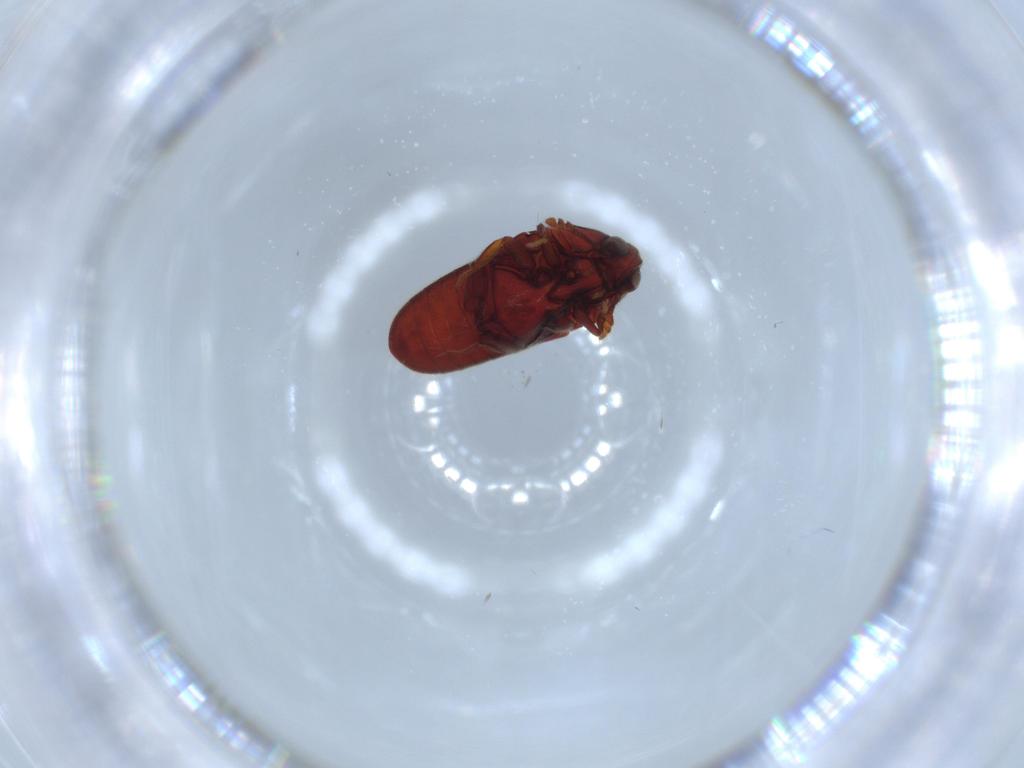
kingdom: Animalia
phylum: Arthropoda
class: Insecta
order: Coleoptera
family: Throscidae
